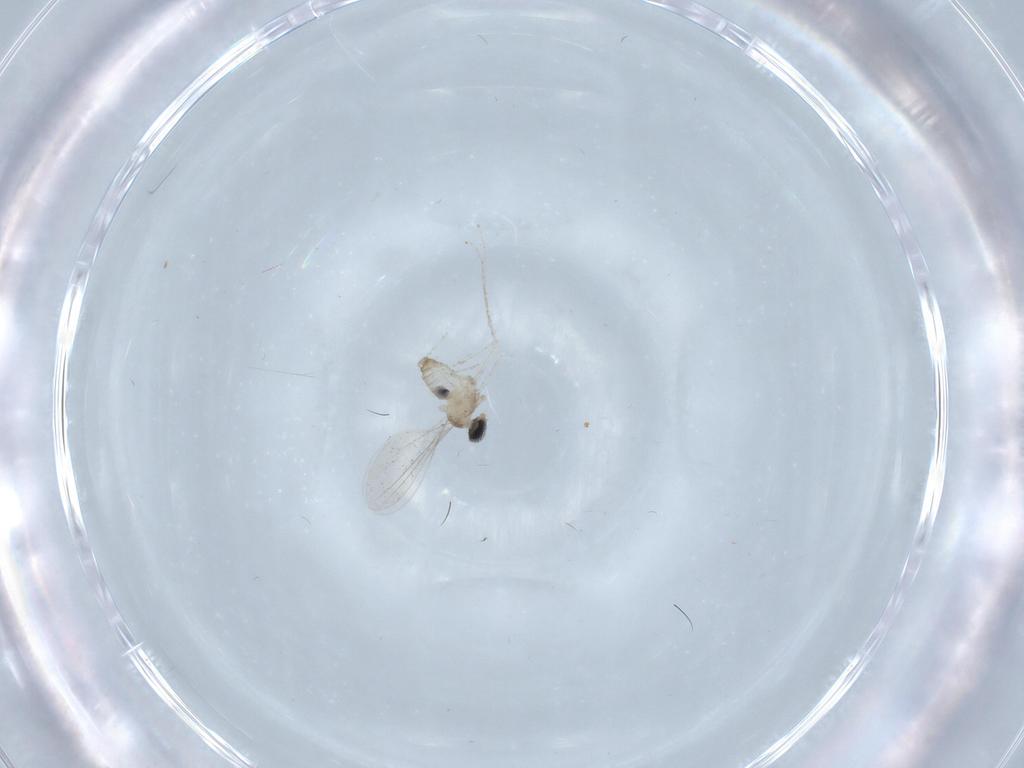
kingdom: Animalia
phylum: Arthropoda
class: Insecta
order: Diptera
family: Cecidomyiidae
